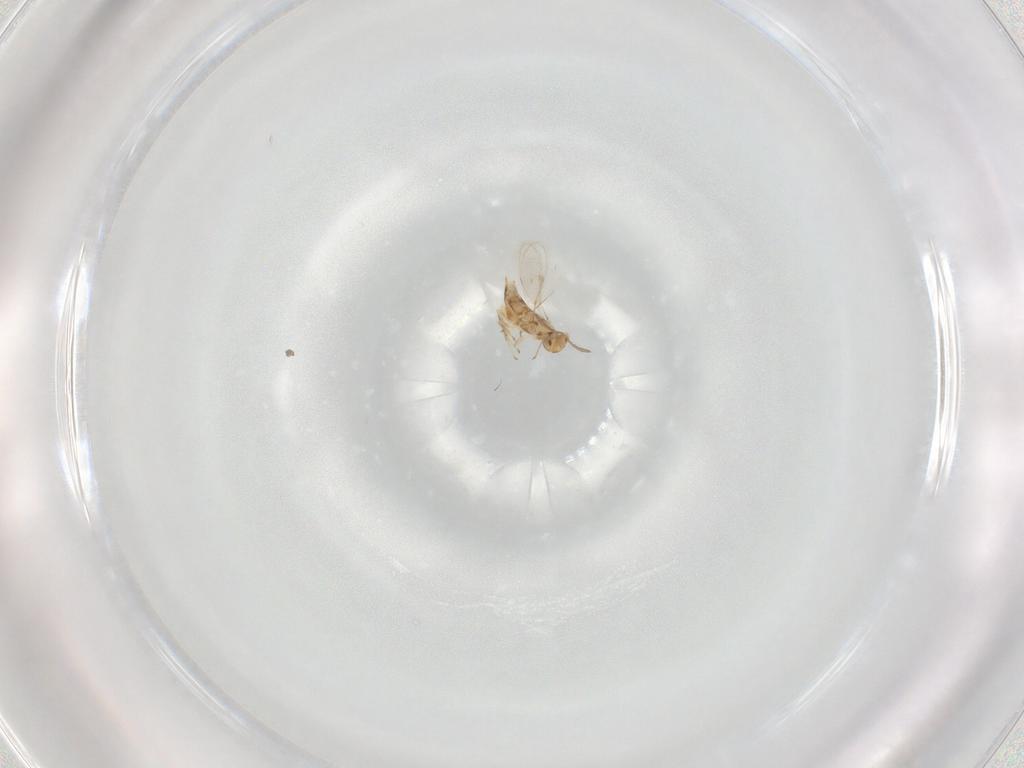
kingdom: Animalia
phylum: Arthropoda
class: Insecta
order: Hymenoptera
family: Aphelinidae
